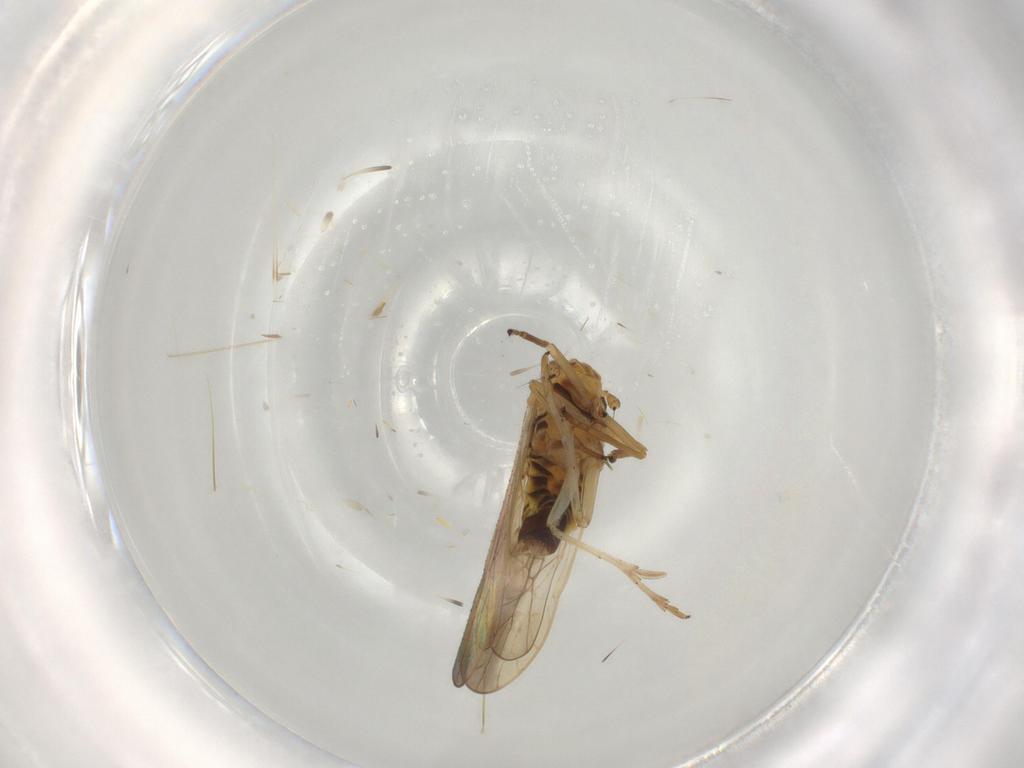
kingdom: Animalia
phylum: Arthropoda
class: Insecta
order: Hemiptera
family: Delphacidae
